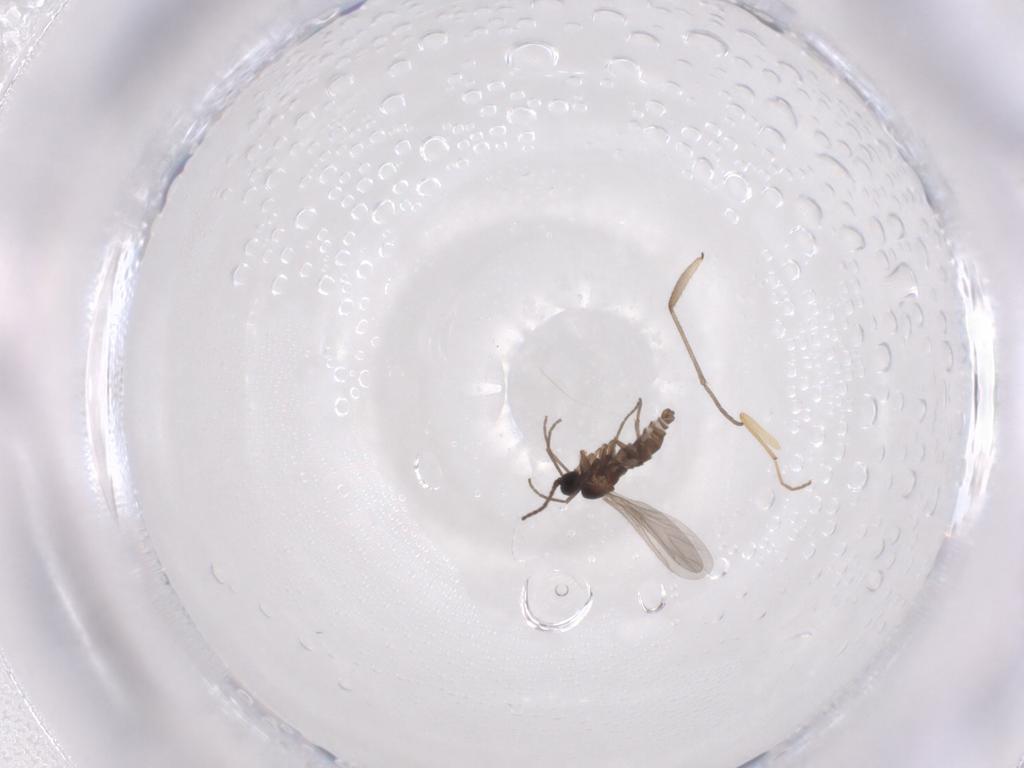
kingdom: Animalia
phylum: Arthropoda
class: Insecta
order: Diptera
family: Sciaridae
